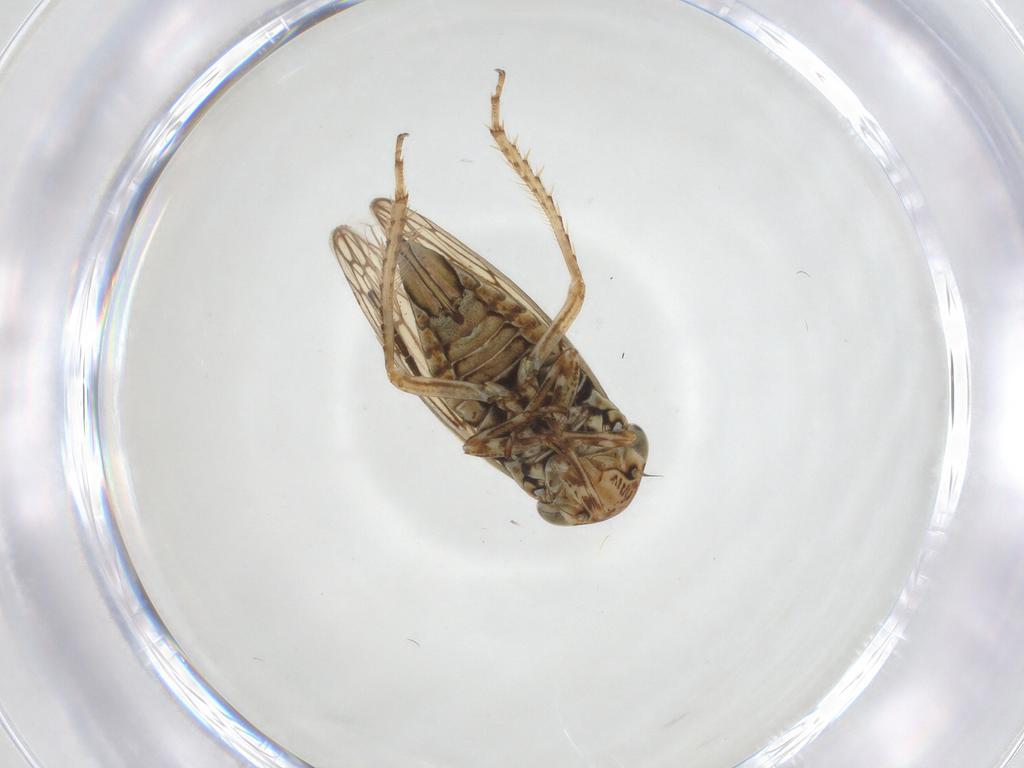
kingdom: Animalia
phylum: Arthropoda
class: Insecta
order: Hemiptera
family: Cicadellidae
